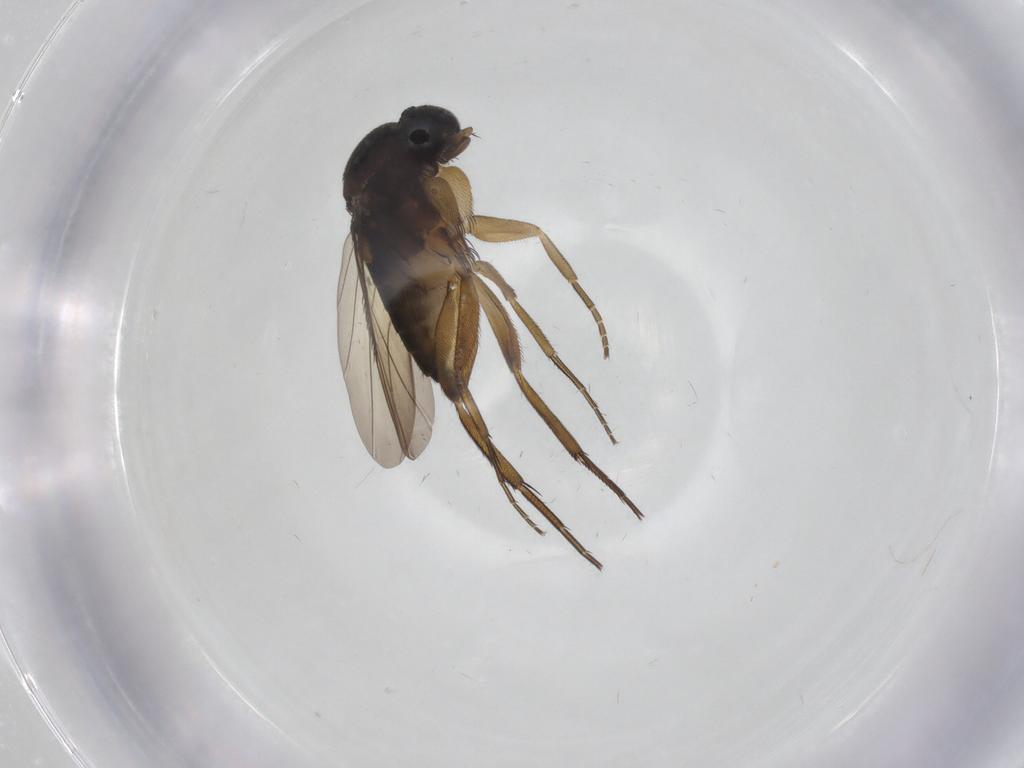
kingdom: Animalia
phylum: Arthropoda
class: Insecta
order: Diptera
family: Phoridae
